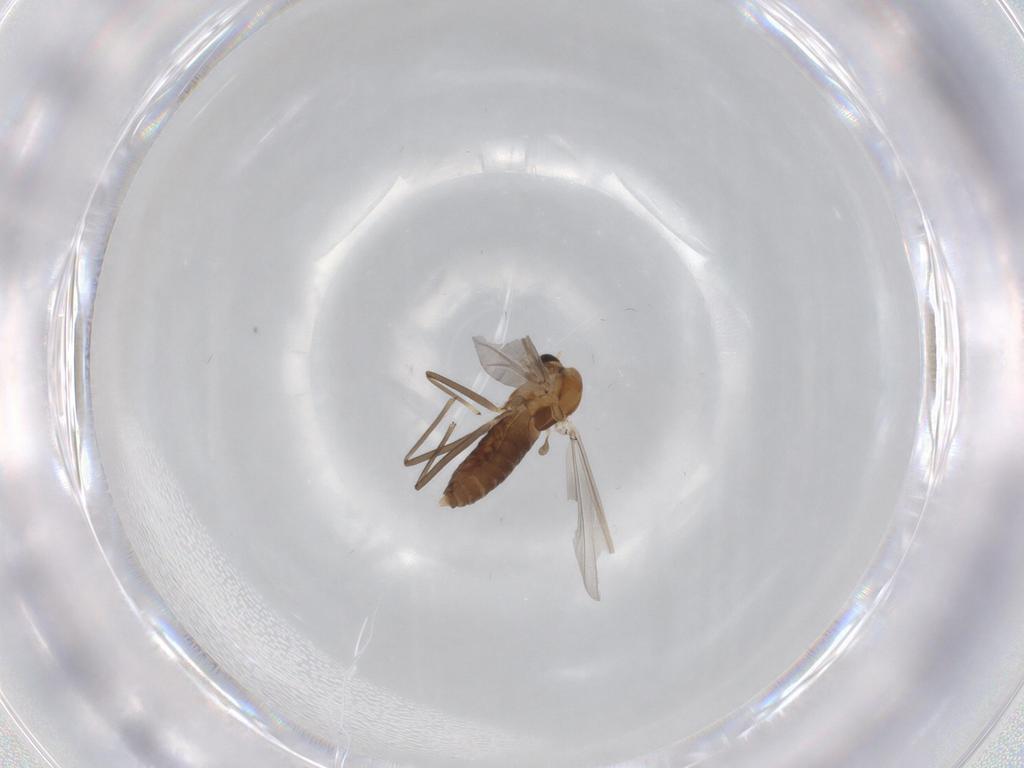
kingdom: Animalia
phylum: Arthropoda
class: Insecta
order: Diptera
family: Chironomidae
